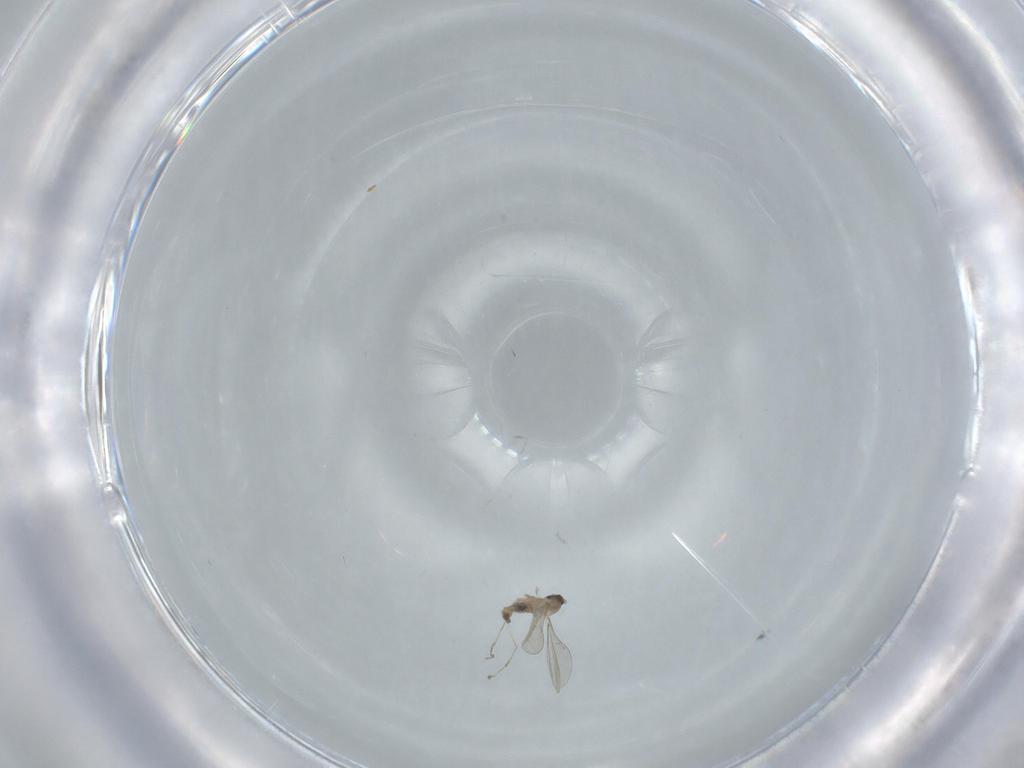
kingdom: Animalia
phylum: Arthropoda
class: Insecta
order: Diptera
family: Chironomidae
